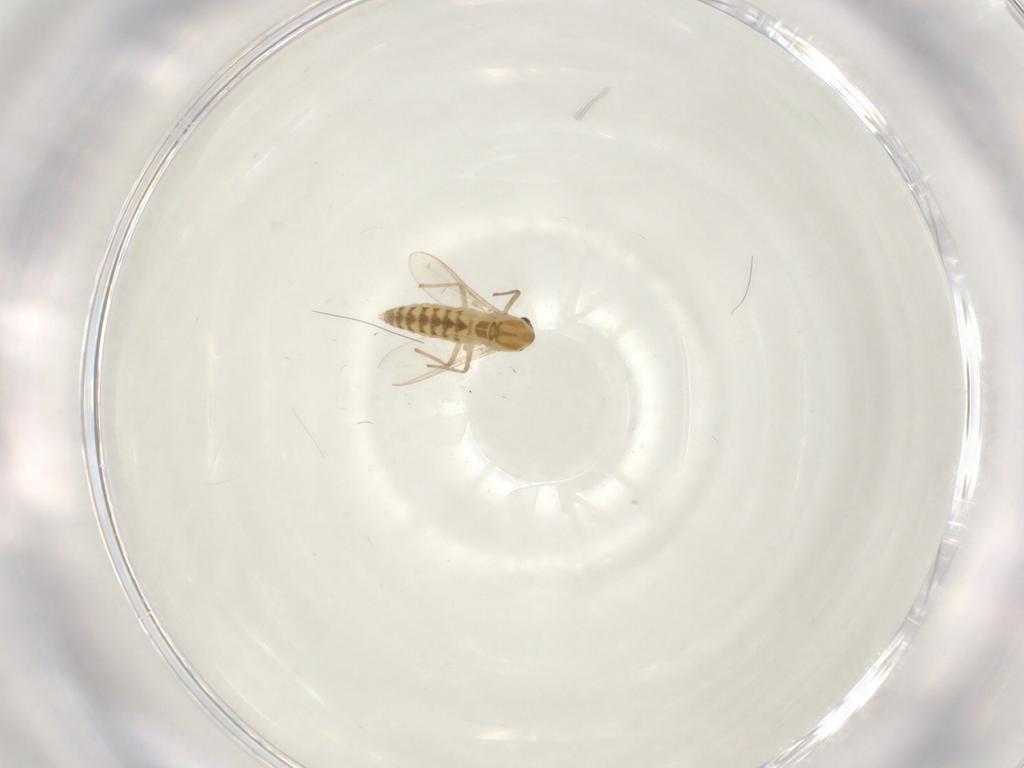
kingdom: Animalia
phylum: Arthropoda
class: Insecta
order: Diptera
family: Chironomidae
